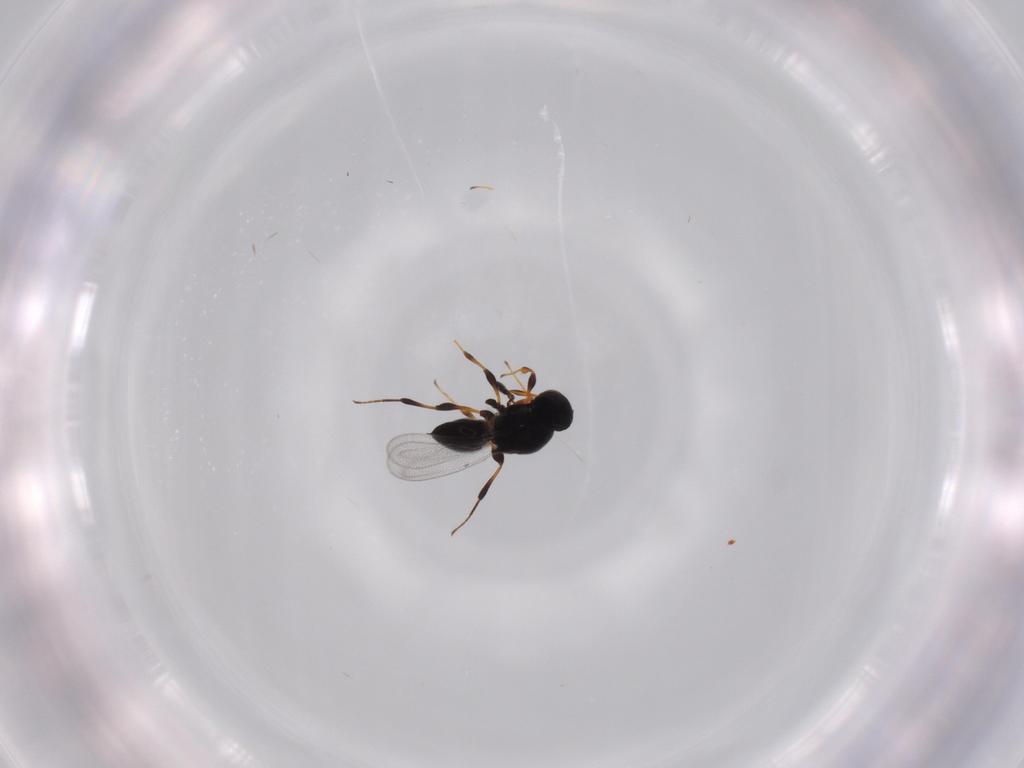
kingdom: Animalia
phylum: Arthropoda
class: Insecta
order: Hymenoptera
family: Platygastridae
